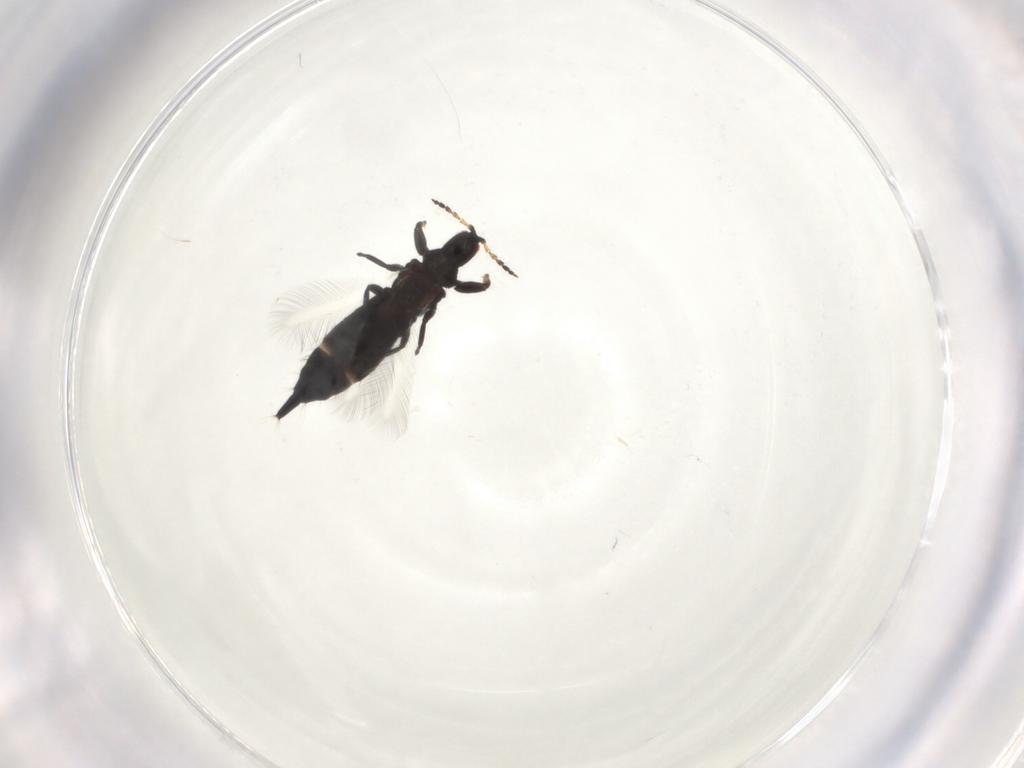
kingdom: Animalia
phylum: Arthropoda
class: Insecta
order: Thysanoptera
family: Phlaeothripidae
